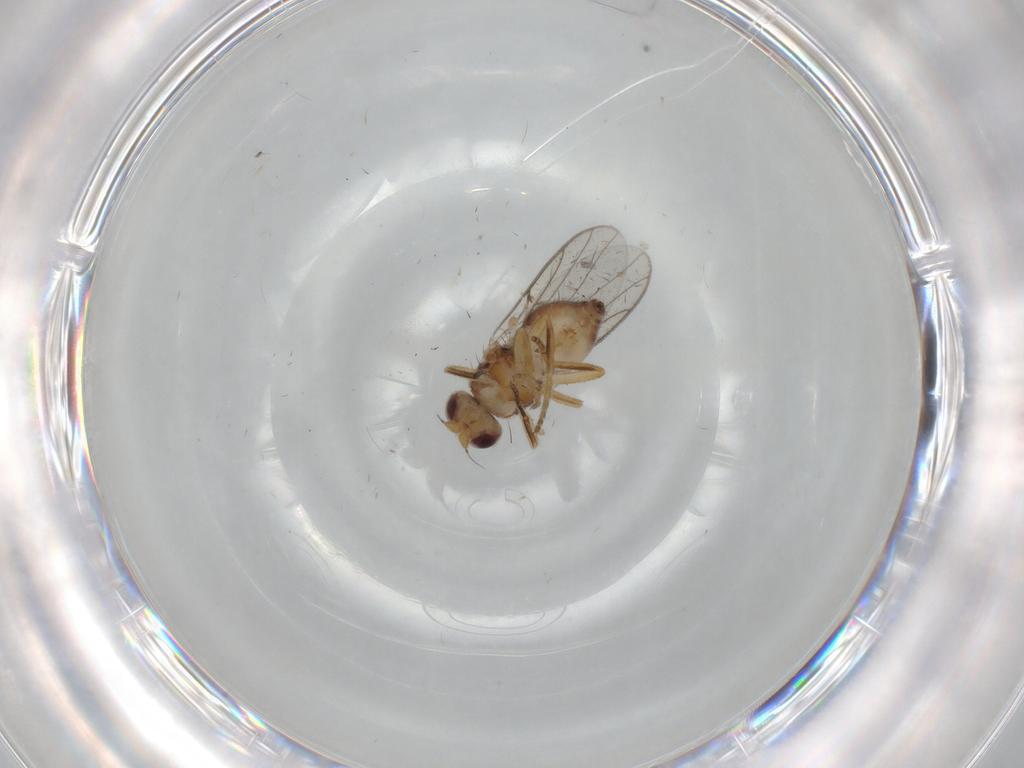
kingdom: Animalia
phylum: Arthropoda
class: Insecta
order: Diptera
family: Chloropidae
